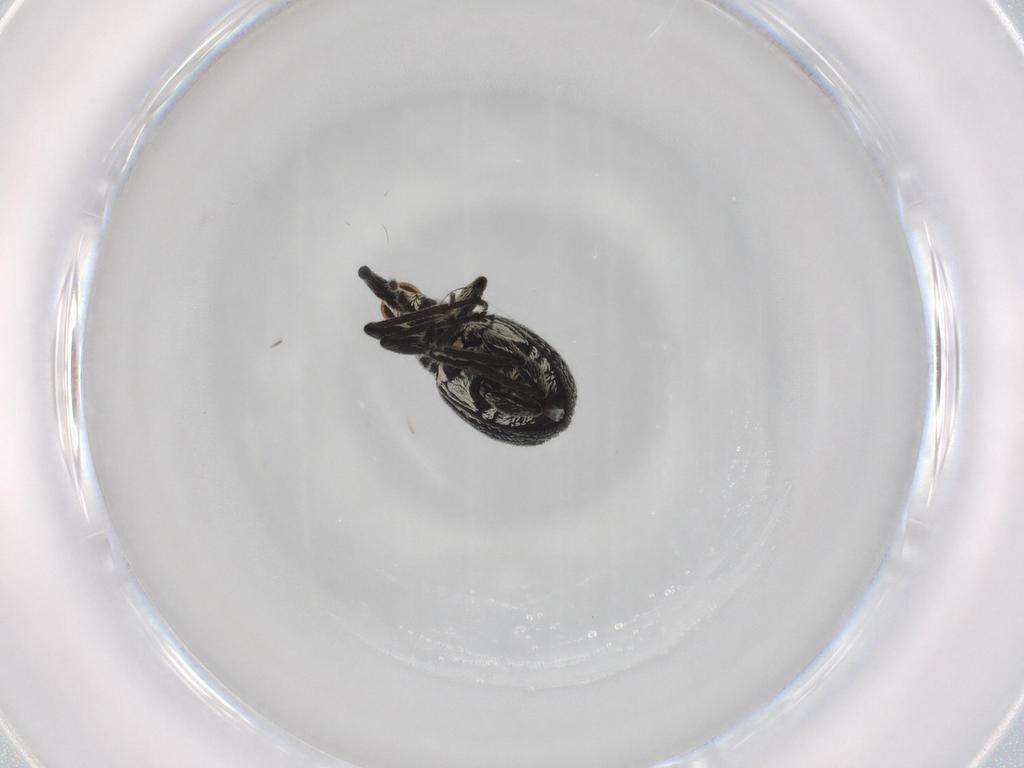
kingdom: Animalia
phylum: Arthropoda
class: Insecta
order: Coleoptera
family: Brentidae
